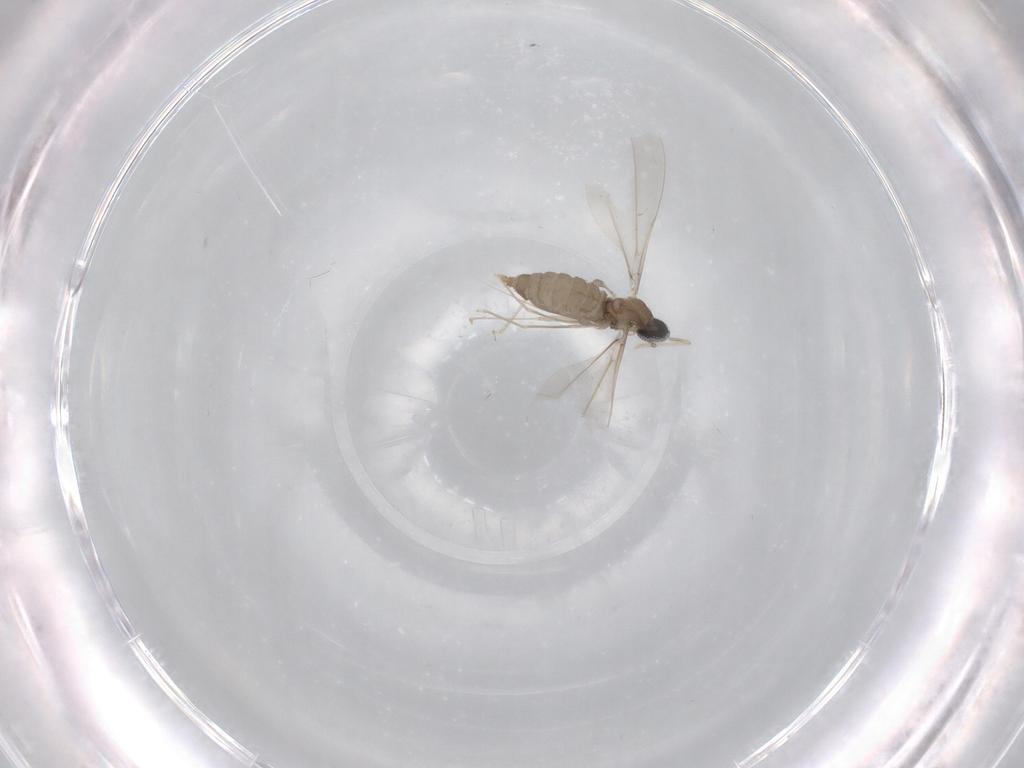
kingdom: Animalia
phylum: Arthropoda
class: Insecta
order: Diptera
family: Cecidomyiidae
